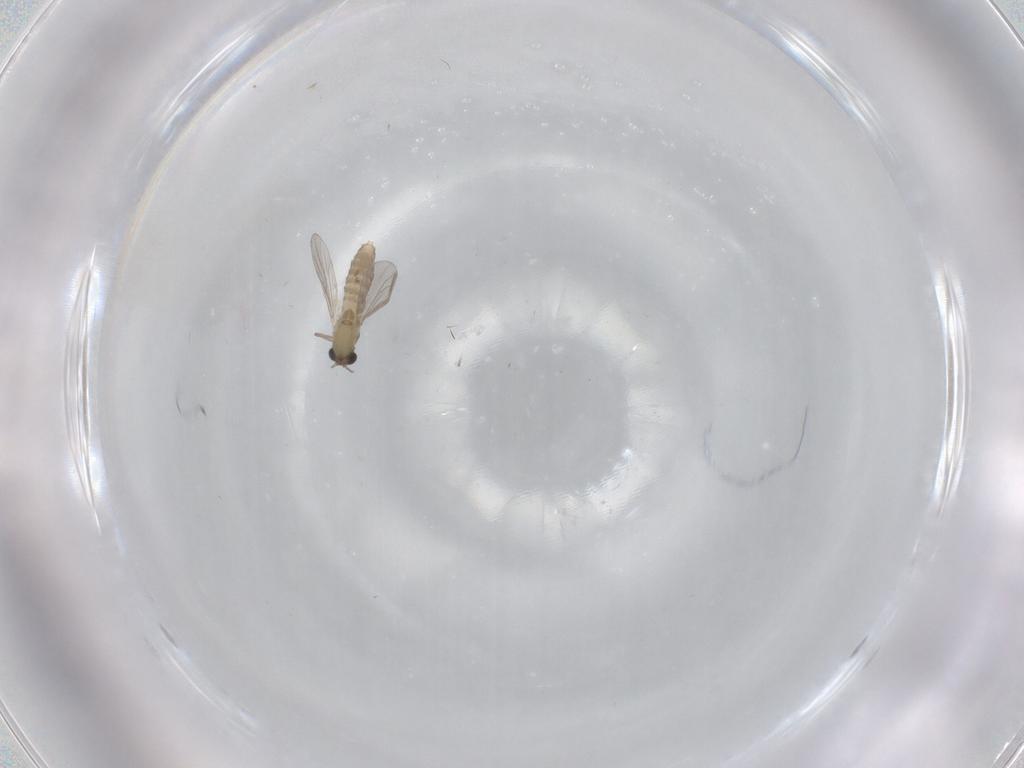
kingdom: Animalia
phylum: Arthropoda
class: Insecta
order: Diptera
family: Chironomidae
